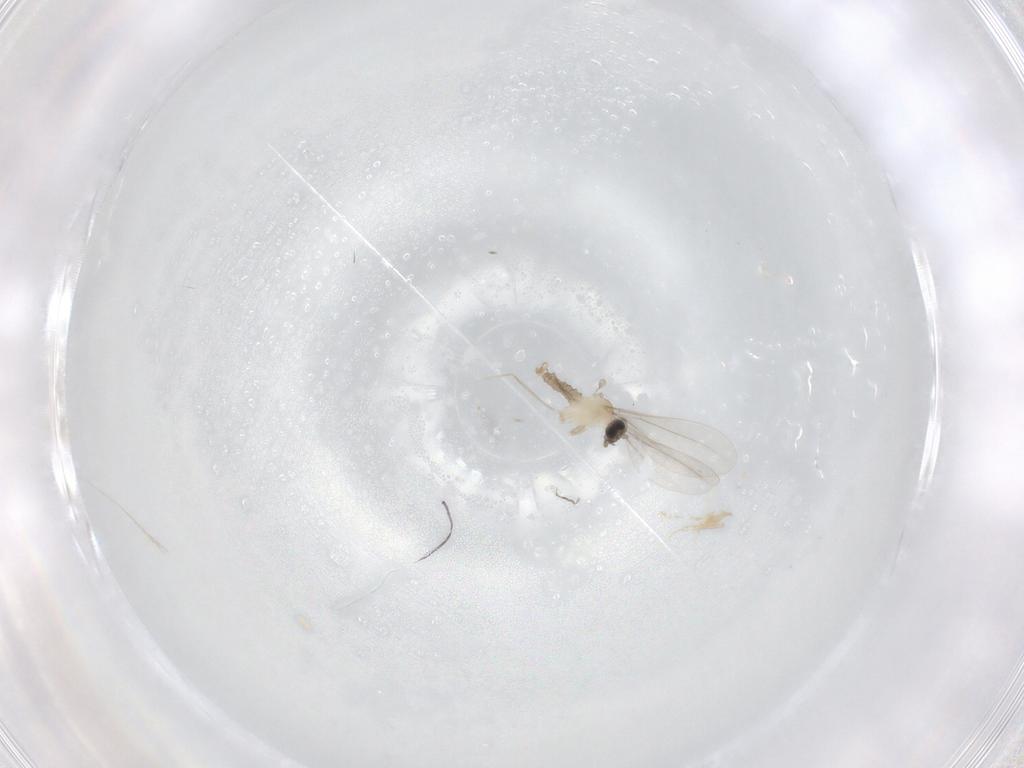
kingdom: Animalia
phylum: Arthropoda
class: Insecta
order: Diptera
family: Cecidomyiidae
